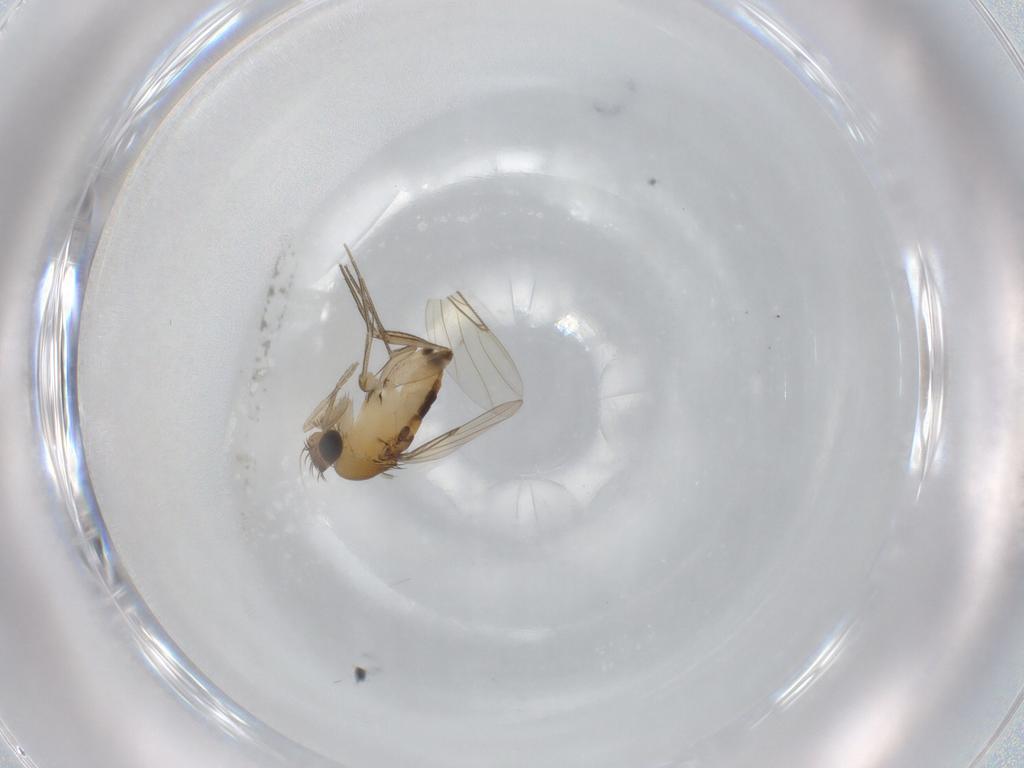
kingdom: Animalia
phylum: Arthropoda
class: Insecta
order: Diptera
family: Phoridae
